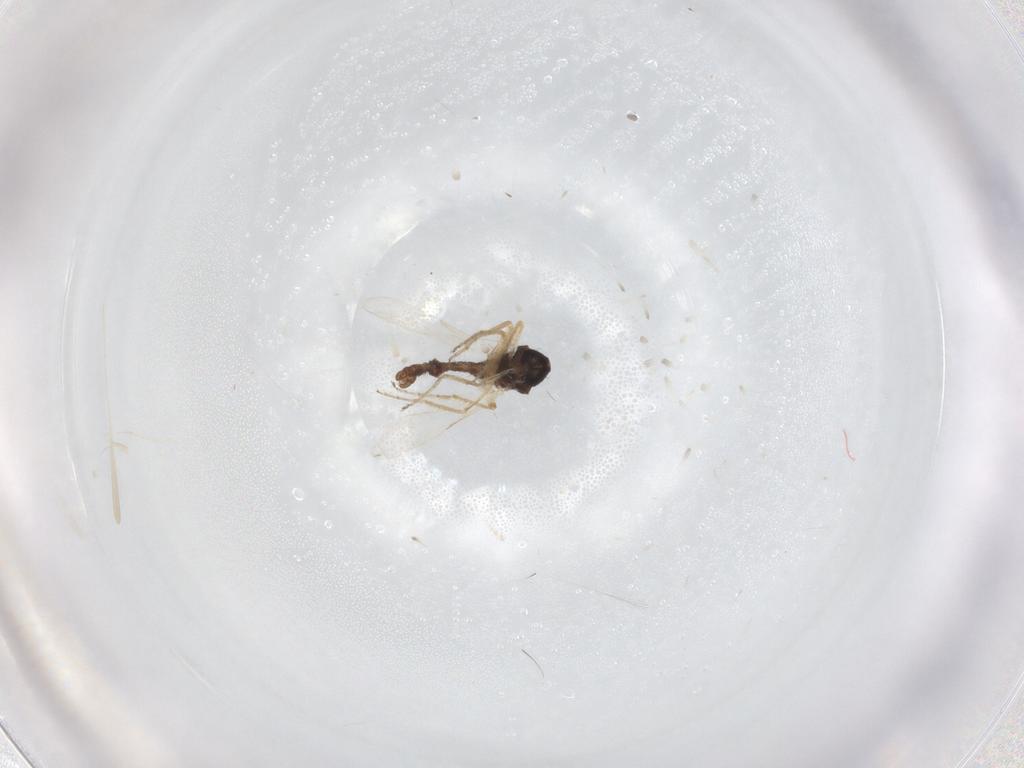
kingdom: Animalia
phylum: Arthropoda
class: Insecta
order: Diptera
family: Ceratopogonidae
